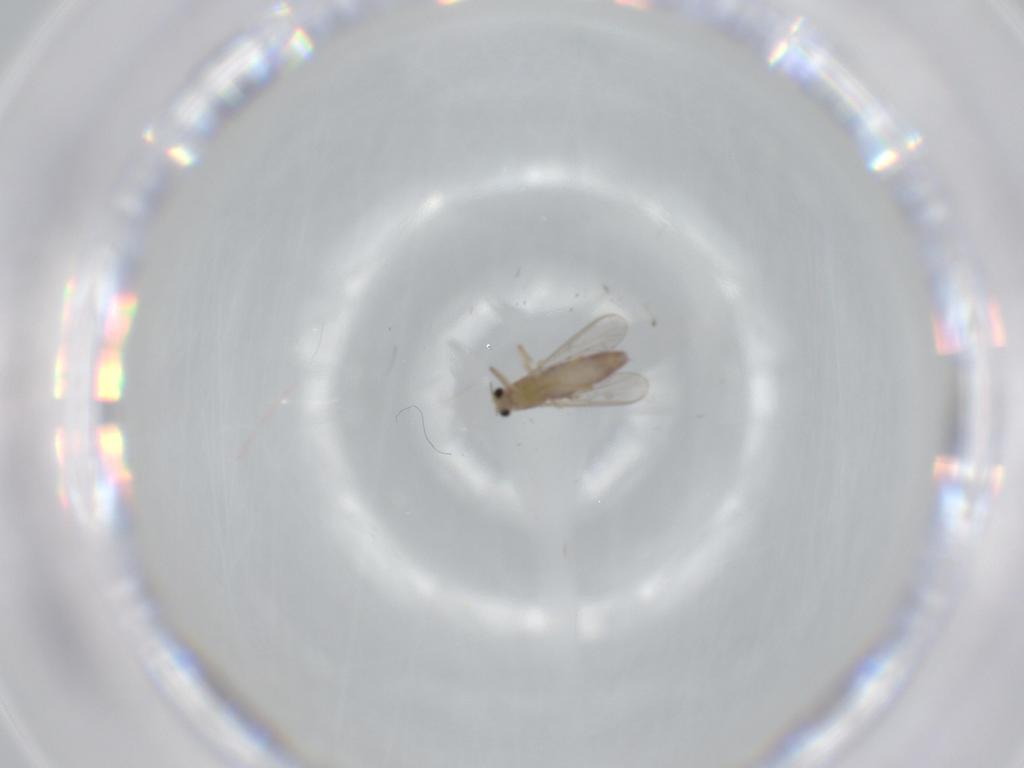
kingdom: Animalia
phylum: Arthropoda
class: Insecta
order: Diptera
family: Chironomidae
